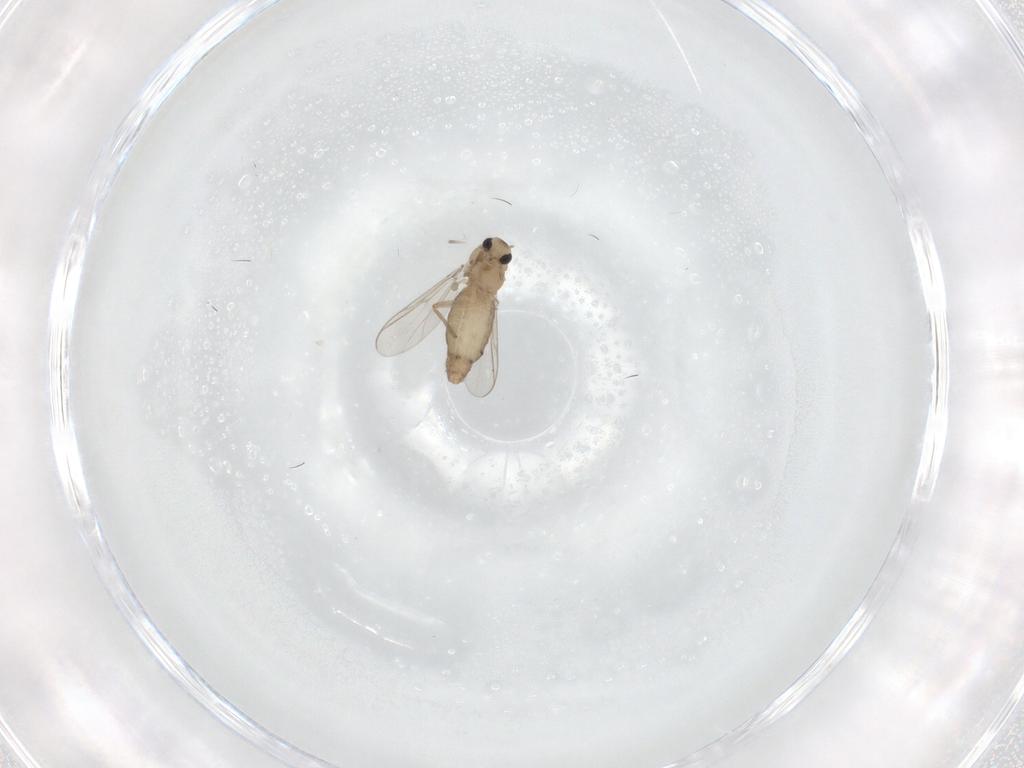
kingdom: Animalia
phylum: Arthropoda
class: Insecta
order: Diptera
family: Chironomidae
